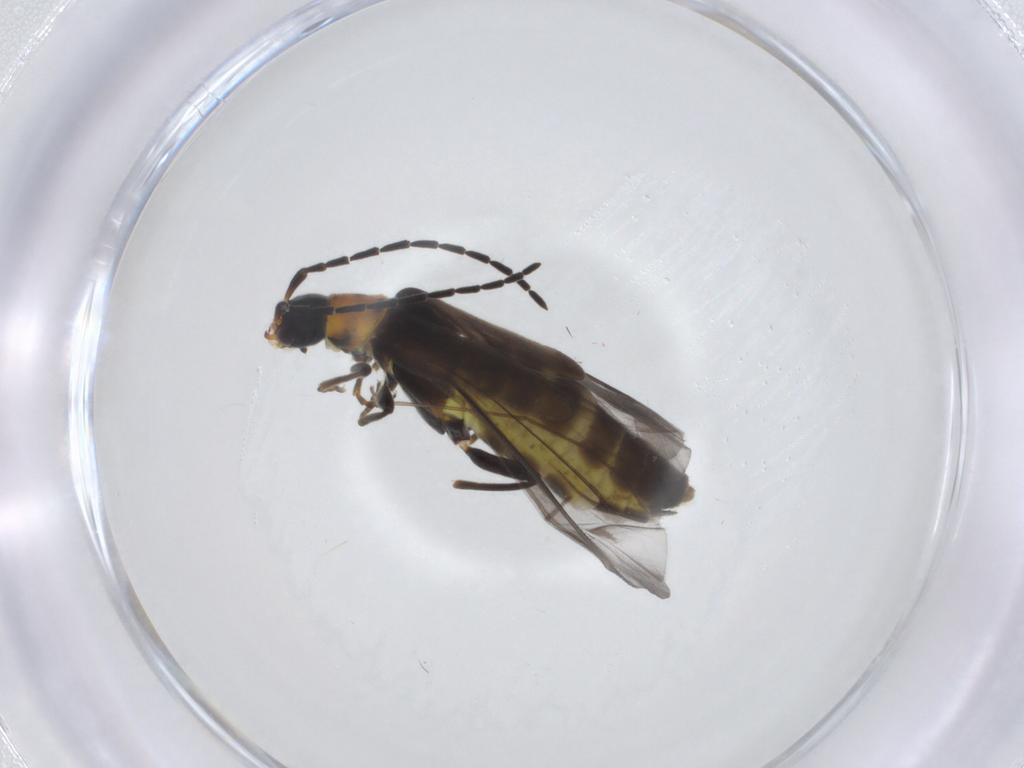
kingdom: Animalia
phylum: Arthropoda
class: Insecta
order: Coleoptera
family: Cantharidae
